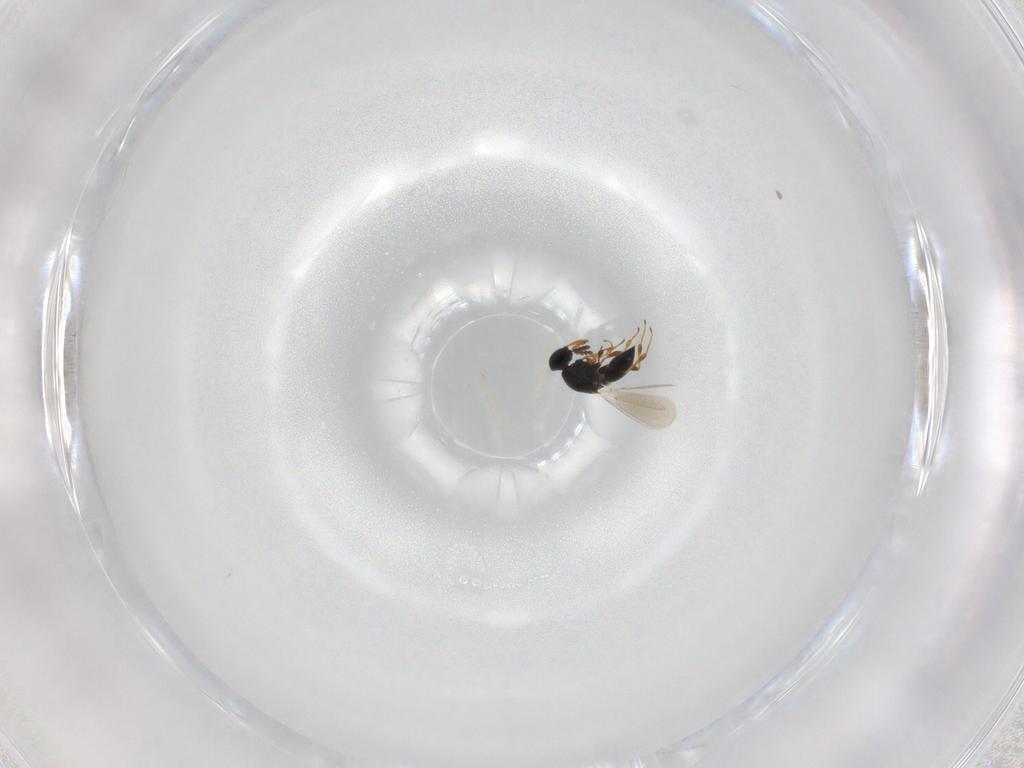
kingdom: Animalia
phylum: Arthropoda
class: Insecta
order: Hymenoptera
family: Platygastridae
